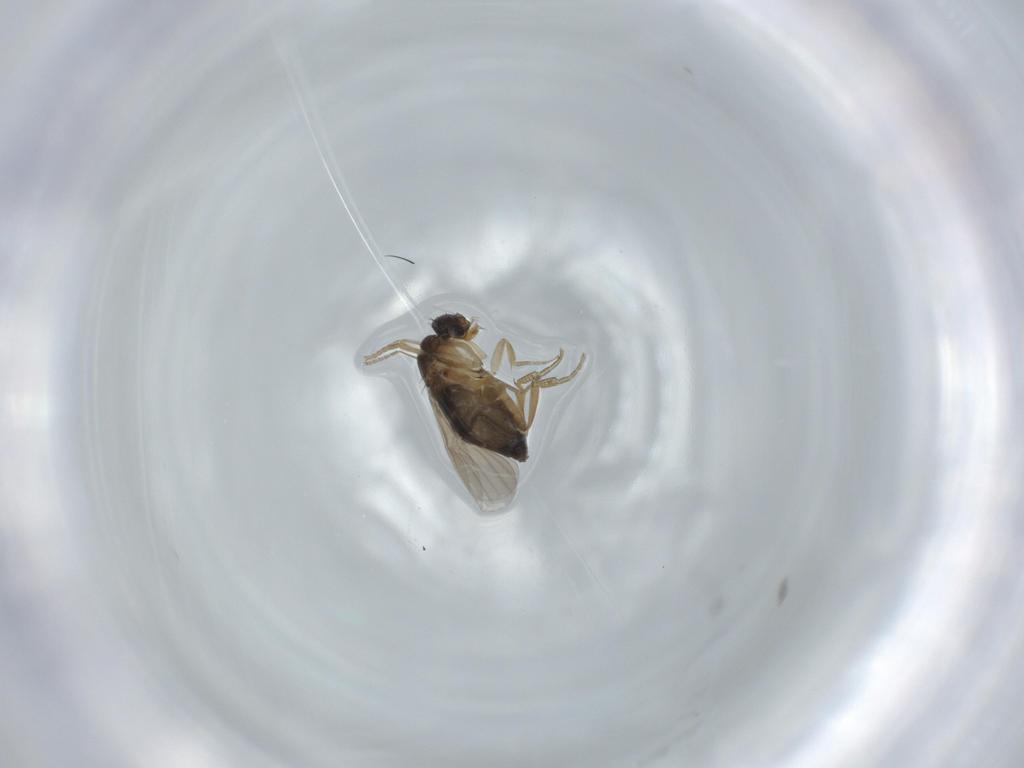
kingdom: Animalia
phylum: Arthropoda
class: Insecta
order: Diptera
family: Phoridae
